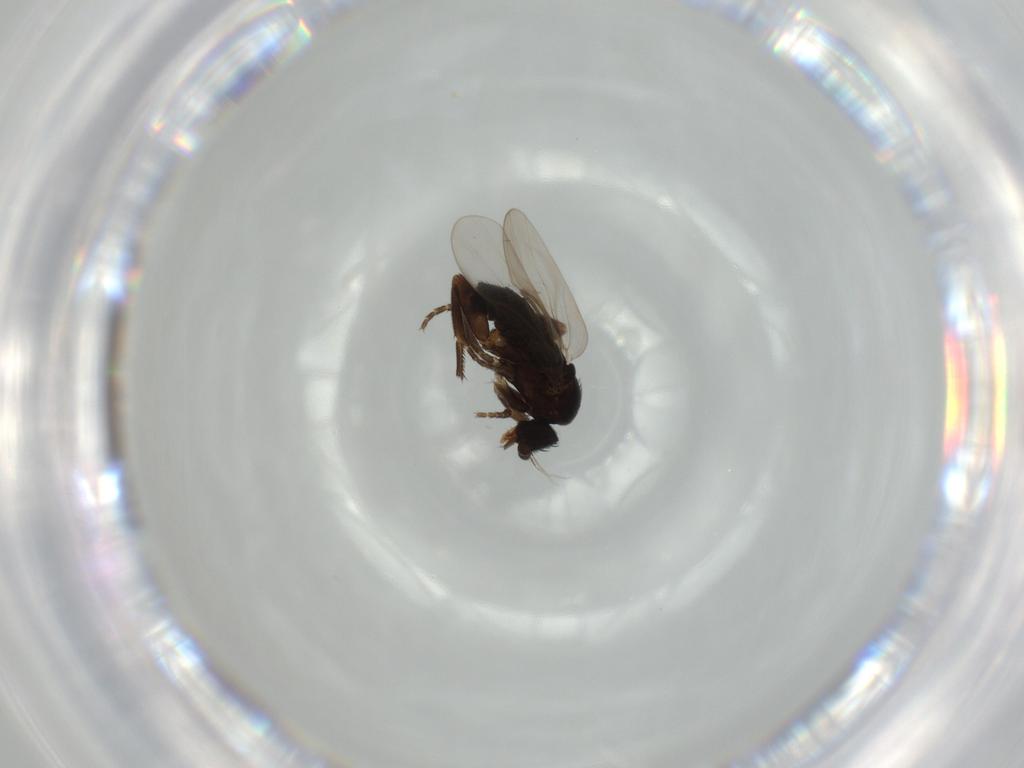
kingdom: Animalia
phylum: Arthropoda
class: Insecta
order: Diptera
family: Phoridae
